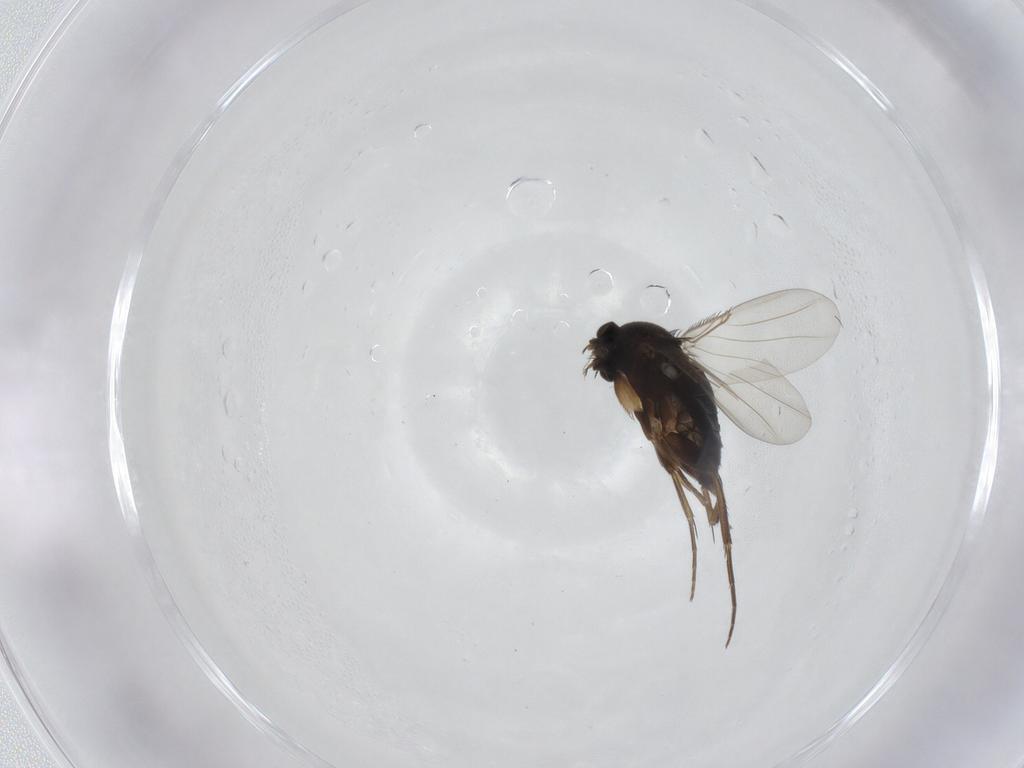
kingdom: Animalia
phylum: Arthropoda
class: Insecta
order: Diptera
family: Phoridae
